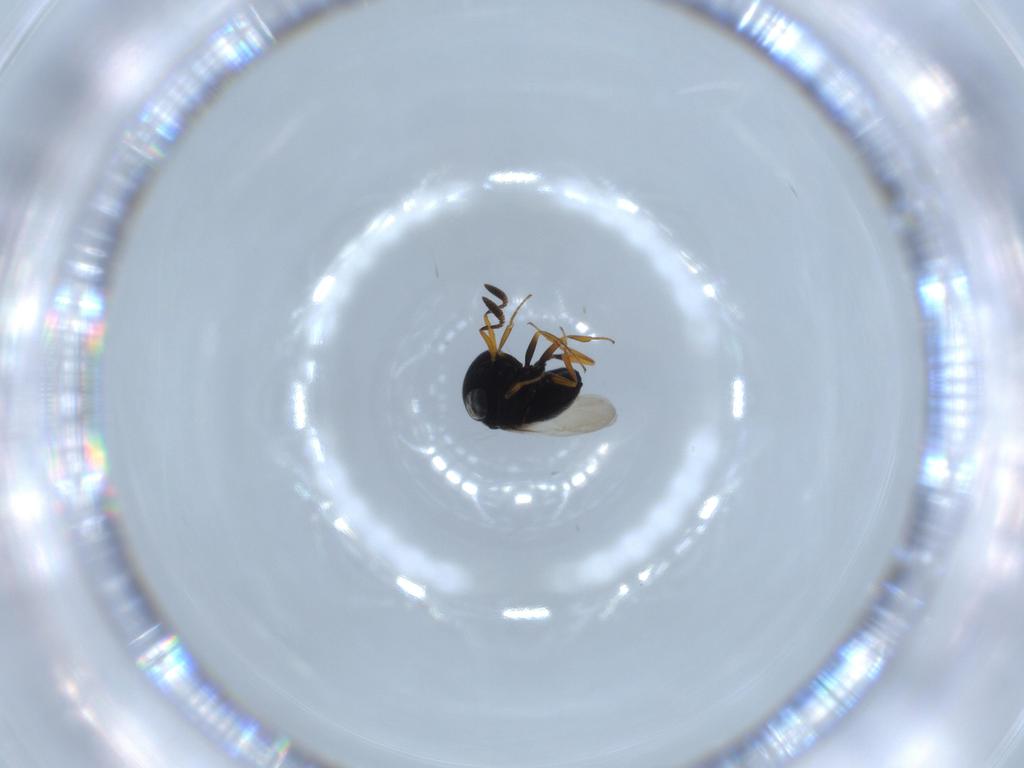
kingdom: Animalia
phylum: Arthropoda
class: Insecta
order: Hymenoptera
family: Scelionidae
